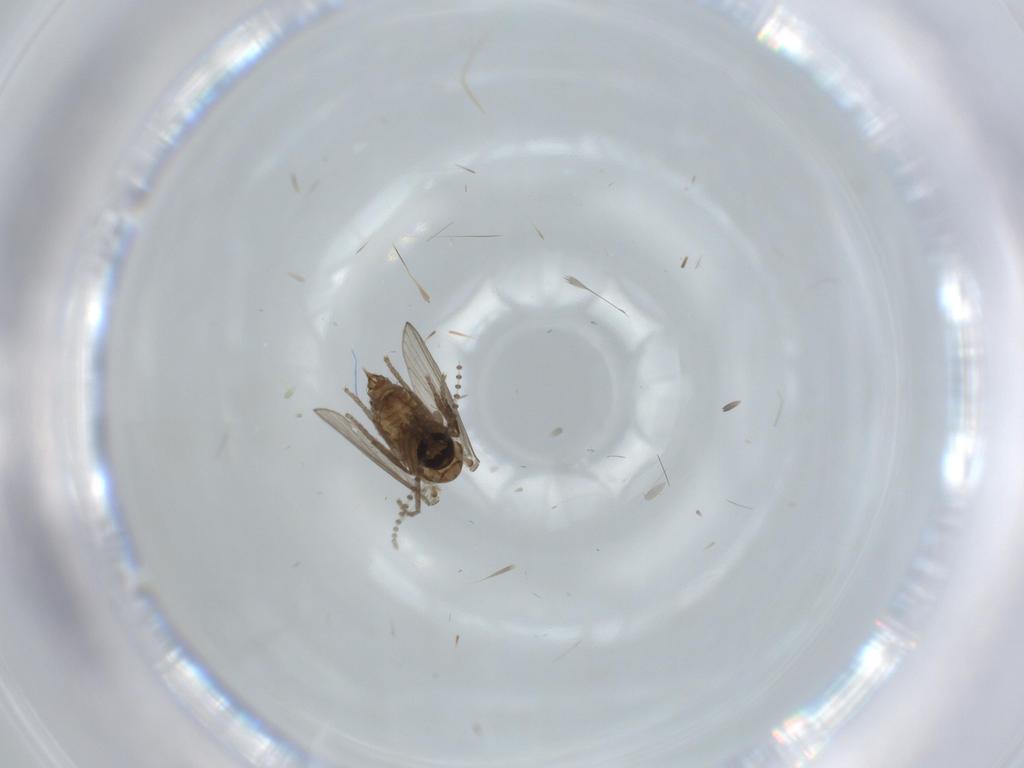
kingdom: Animalia
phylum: Arthropoda
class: Insecta
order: Diptera
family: Psychodidae
